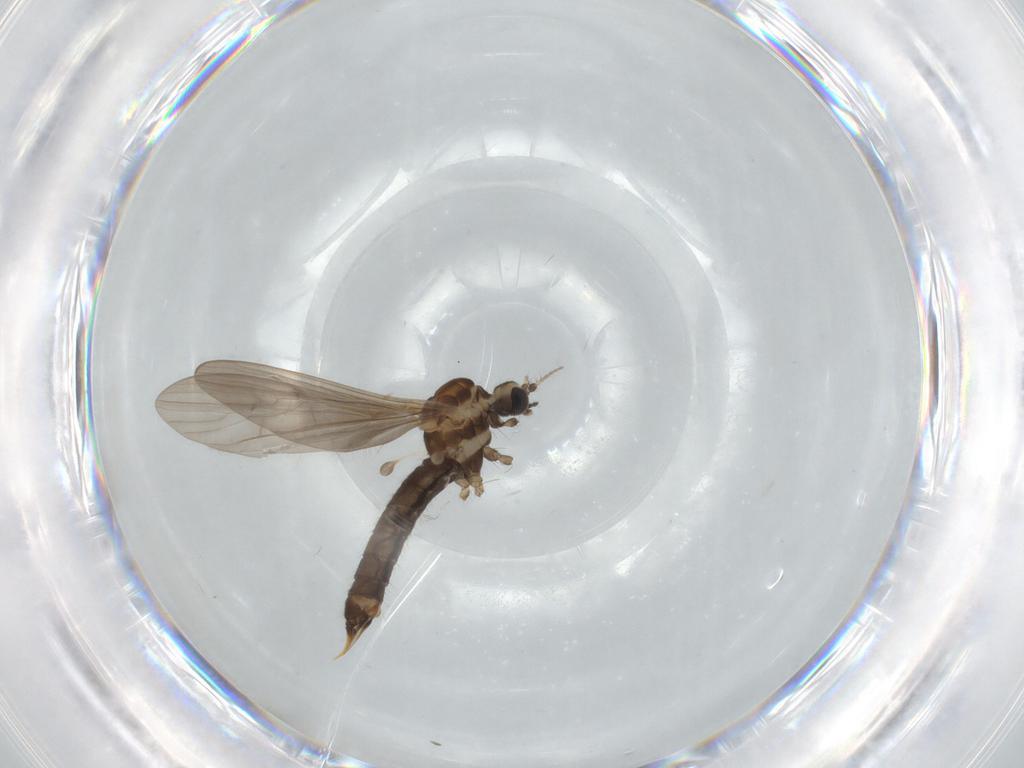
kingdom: Animalia
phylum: Arthropoda
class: Insecta
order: Diptera
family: Limoniidae
